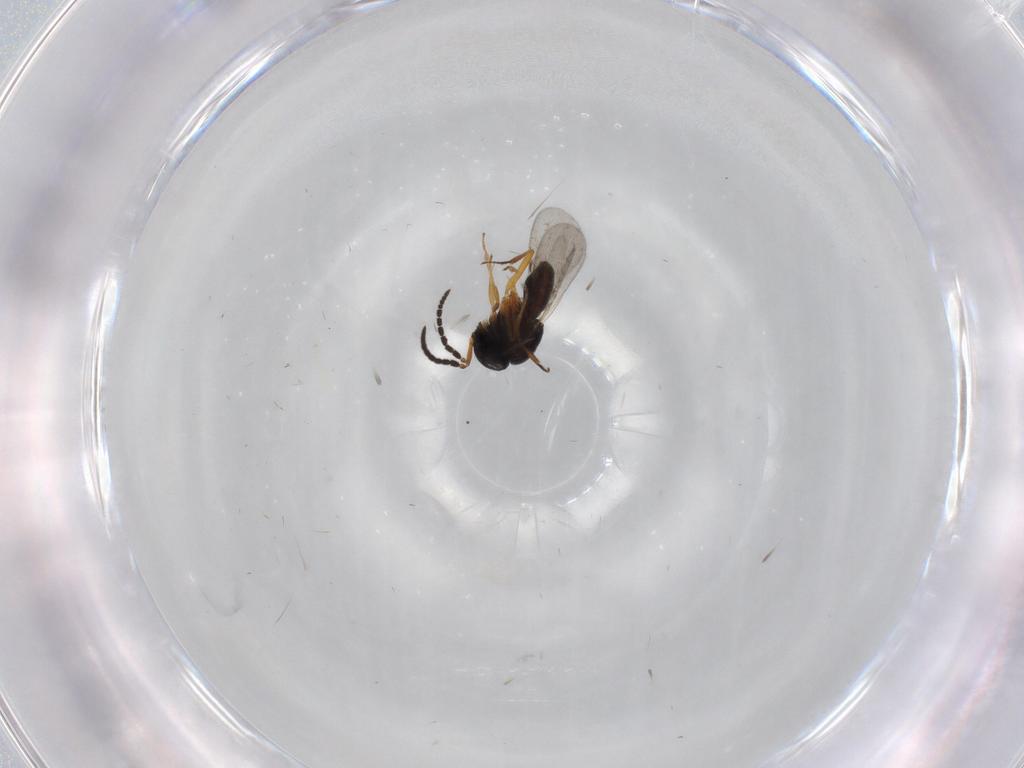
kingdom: Animalia
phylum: Arthropoda
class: Insecta
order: Hymenoptera
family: Scelionidae
